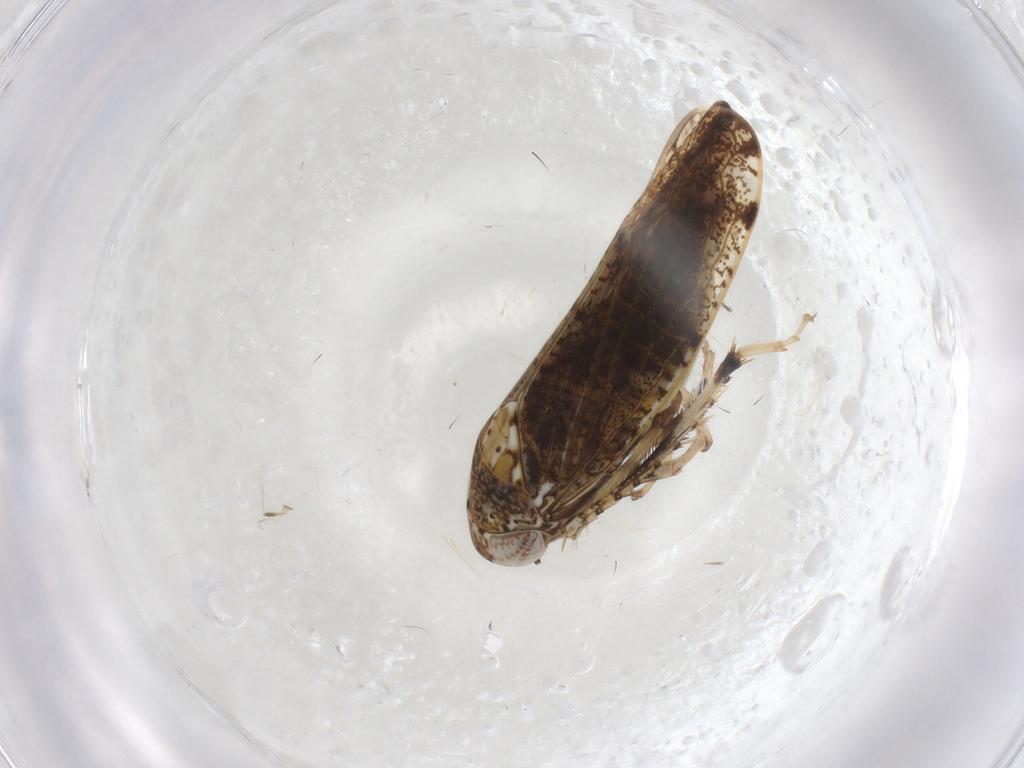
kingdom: Animalia
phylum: Arthropoda
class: Insecta
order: Hemiptera
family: Cicadellidae
